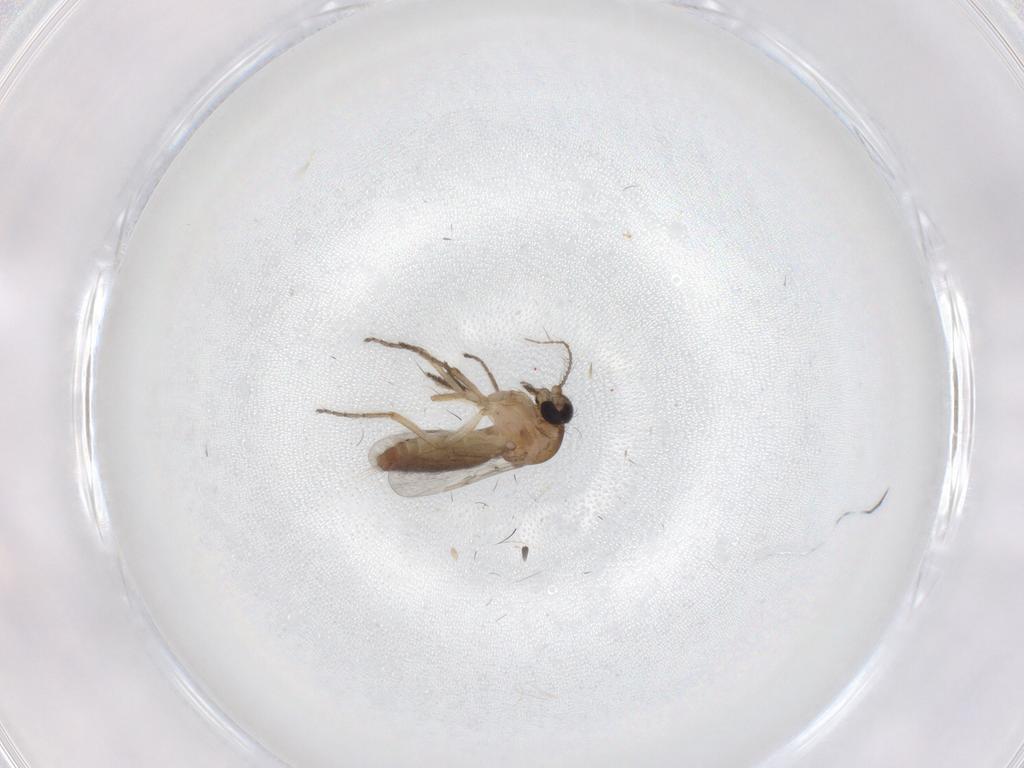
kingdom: Animalia
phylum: Arthropoda
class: Insecta
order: Diptera
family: Ceratopogonidae
